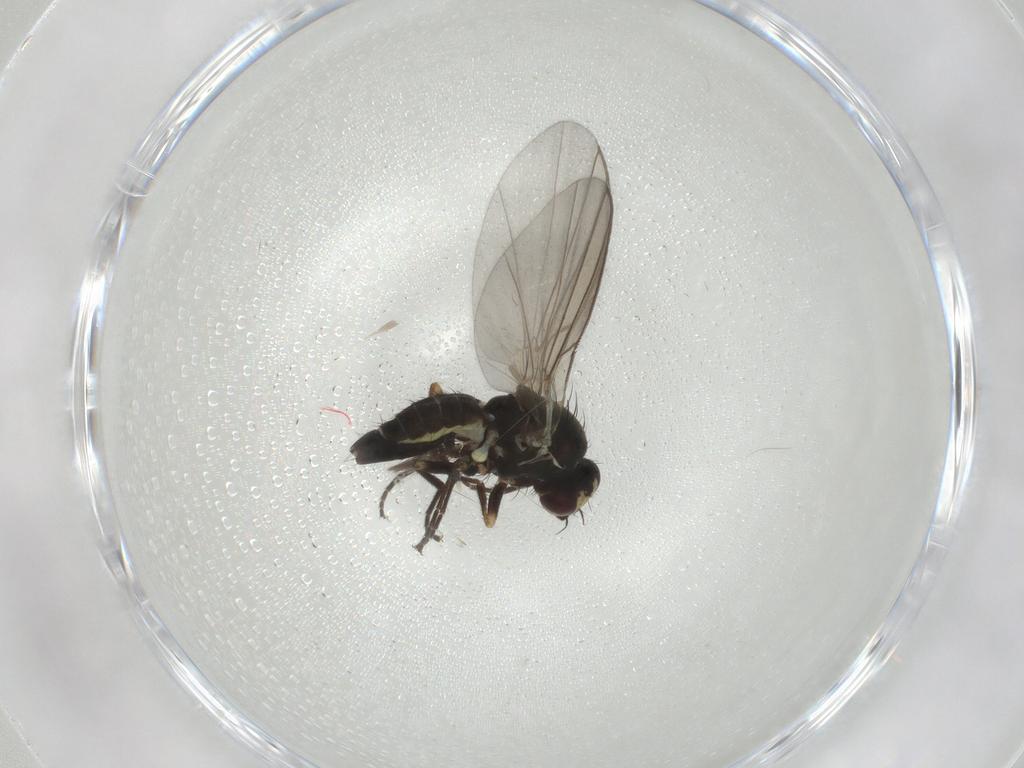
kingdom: Animalia
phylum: Arthropoda
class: Insecta
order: Diptera
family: Agromyzidae
